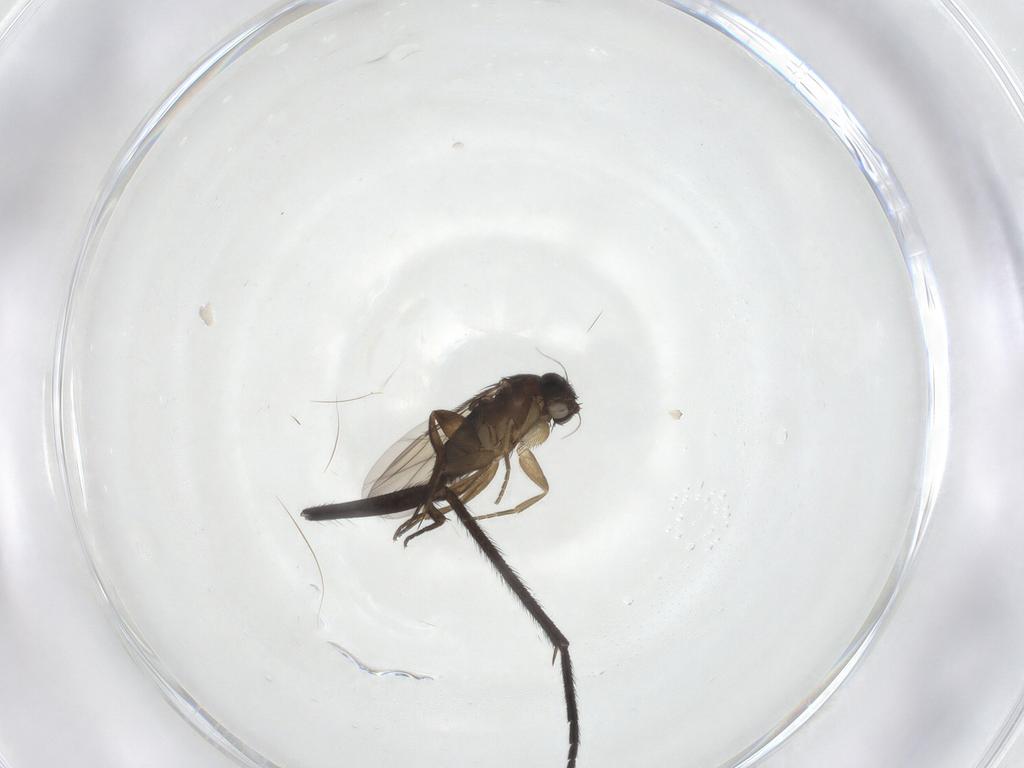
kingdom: Animalia
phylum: Arthropoda
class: Insecta
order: Diptera
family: Phoridae
